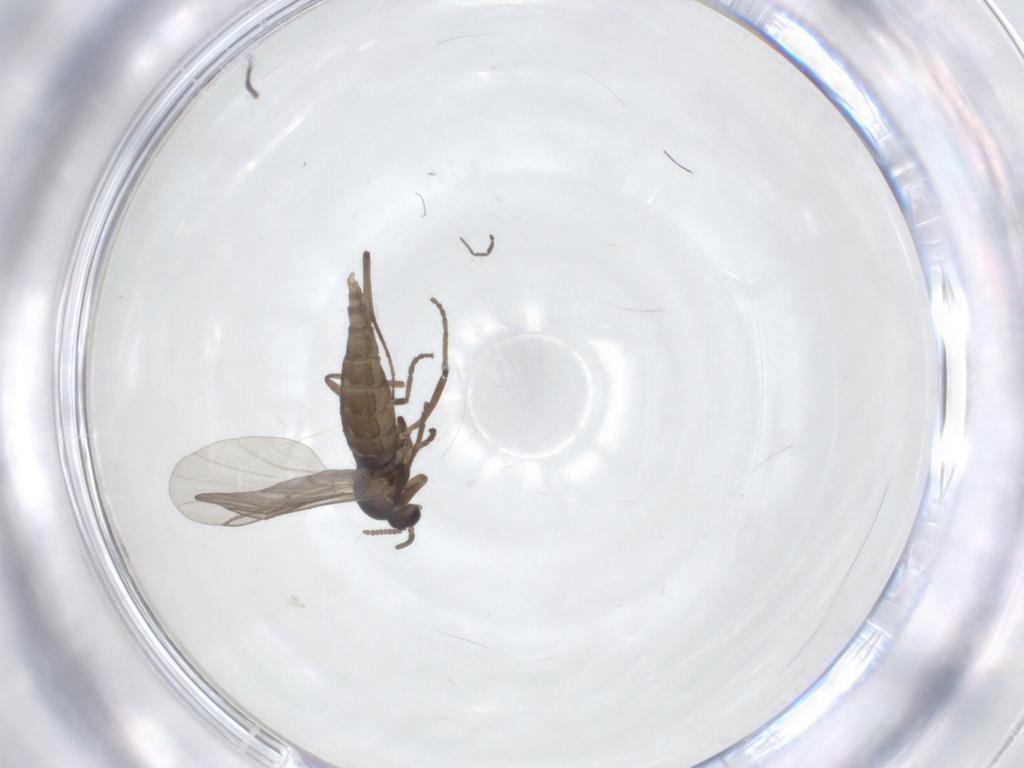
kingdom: Animalia
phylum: Arthropoda
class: Insecta
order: Diptera
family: Cecidomyiidae
